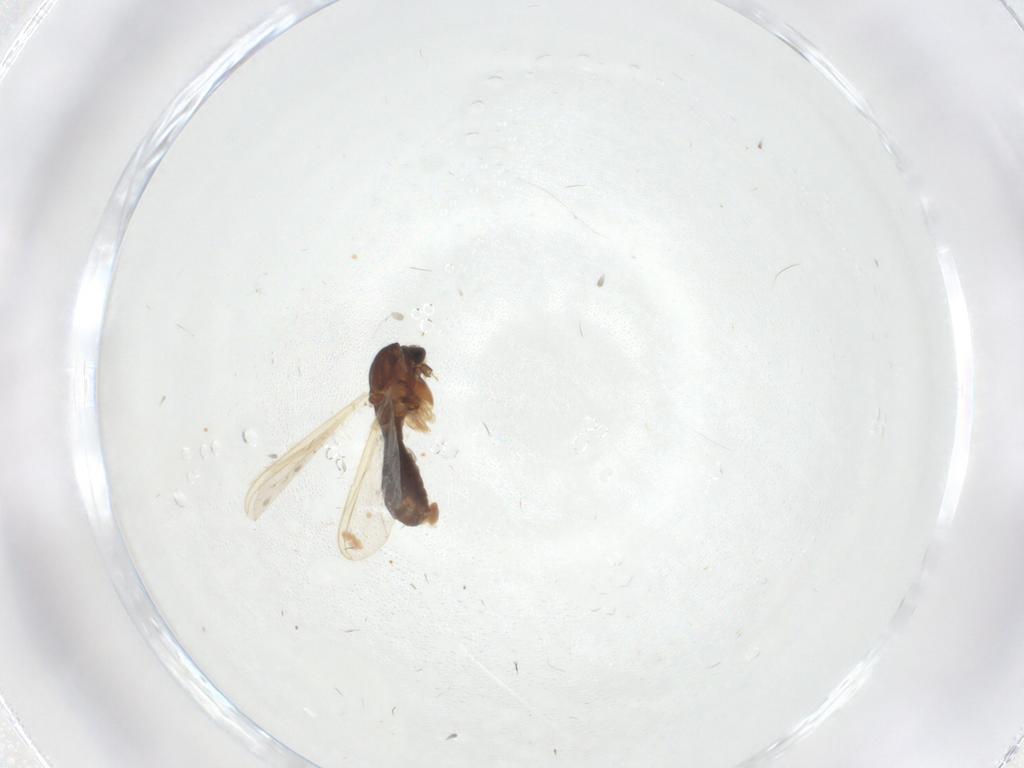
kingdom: Animalia
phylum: Arthropoda
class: Insecta
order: Diptera
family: Chironomidae
